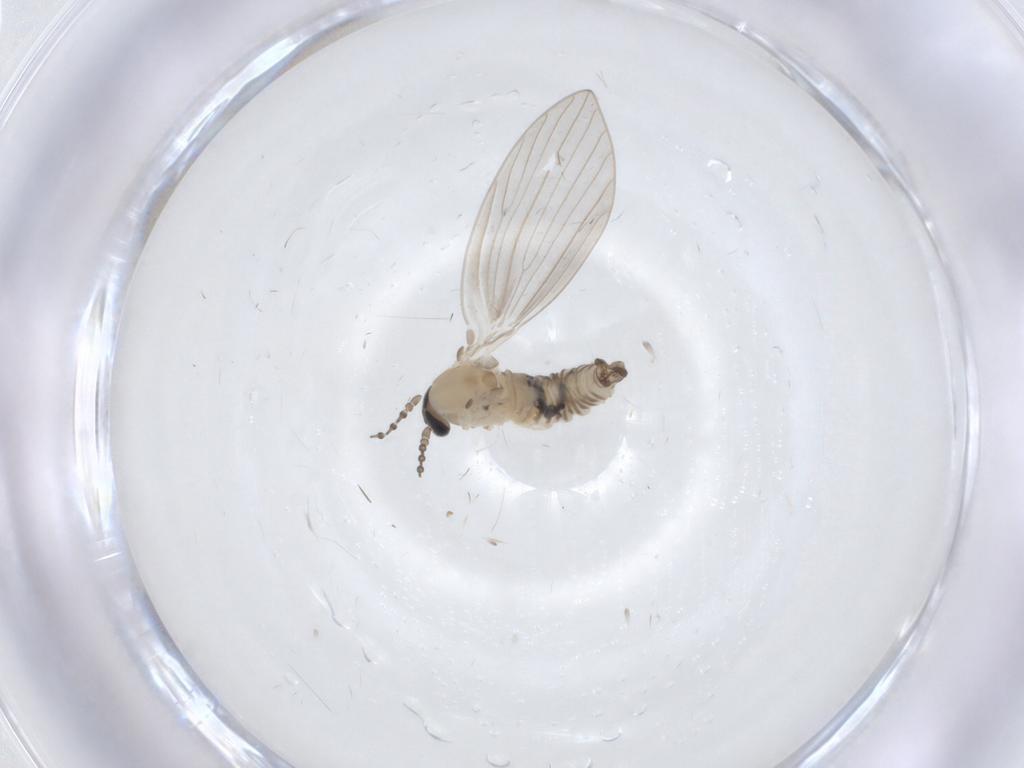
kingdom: Animalia
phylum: Arthropoda
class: Insecta
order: Diptera
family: Psychodidae
